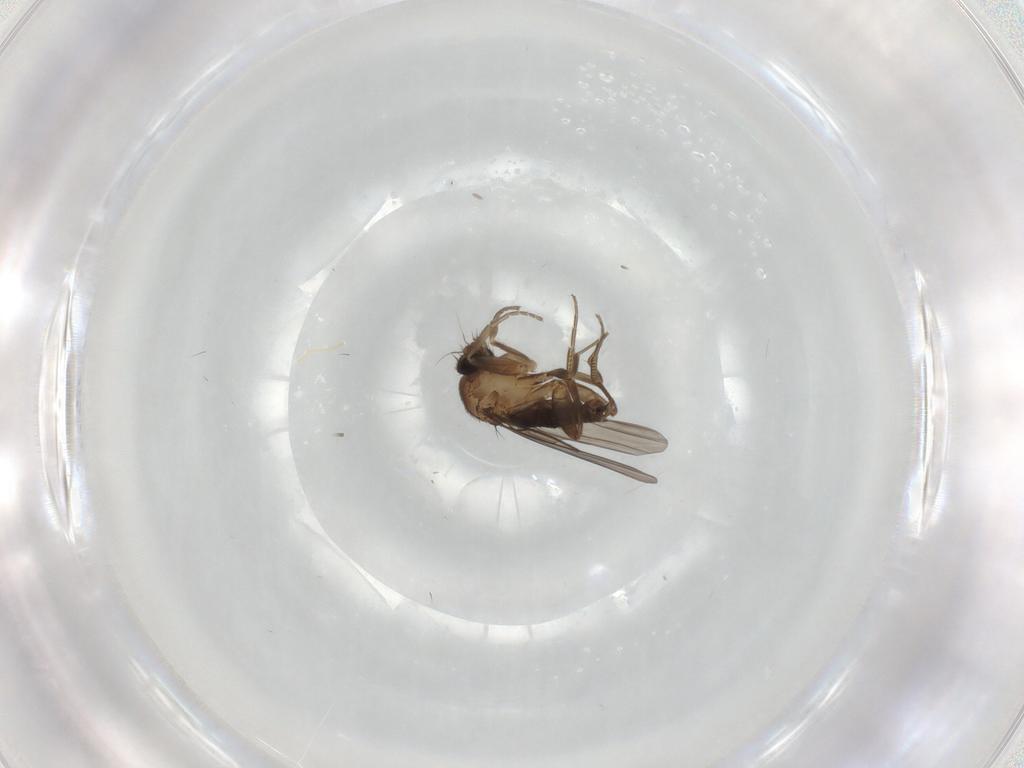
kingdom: Animalia
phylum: Arthropoda
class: Insecta
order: Diptera
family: Phoridae
